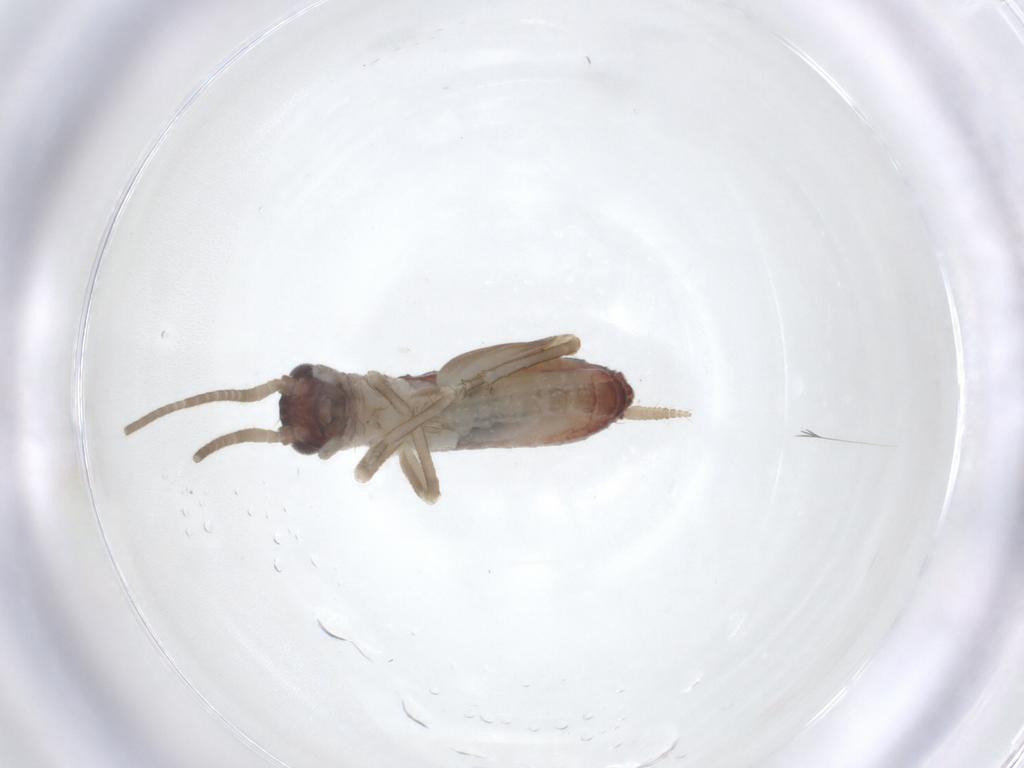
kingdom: Animalia
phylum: Arthropoda
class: Insecta
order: Orthoptera
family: Gryllidae
